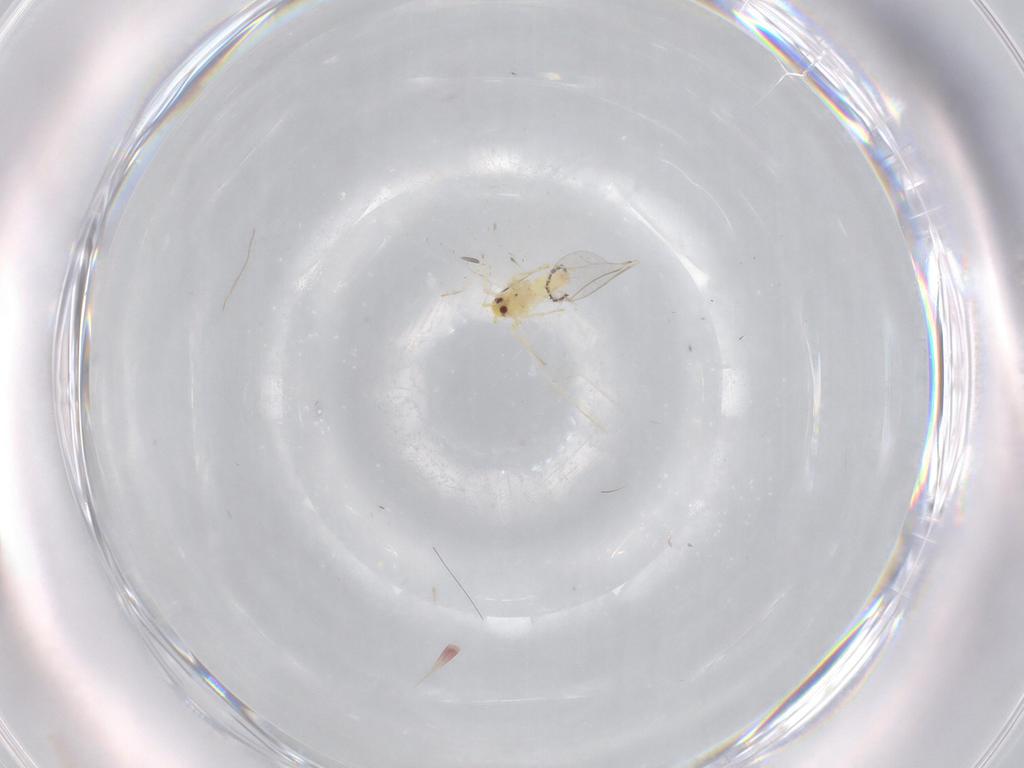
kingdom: Animalia
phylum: Arthropoda
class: Insecta
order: Hemiptera
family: Aleyrodidae
